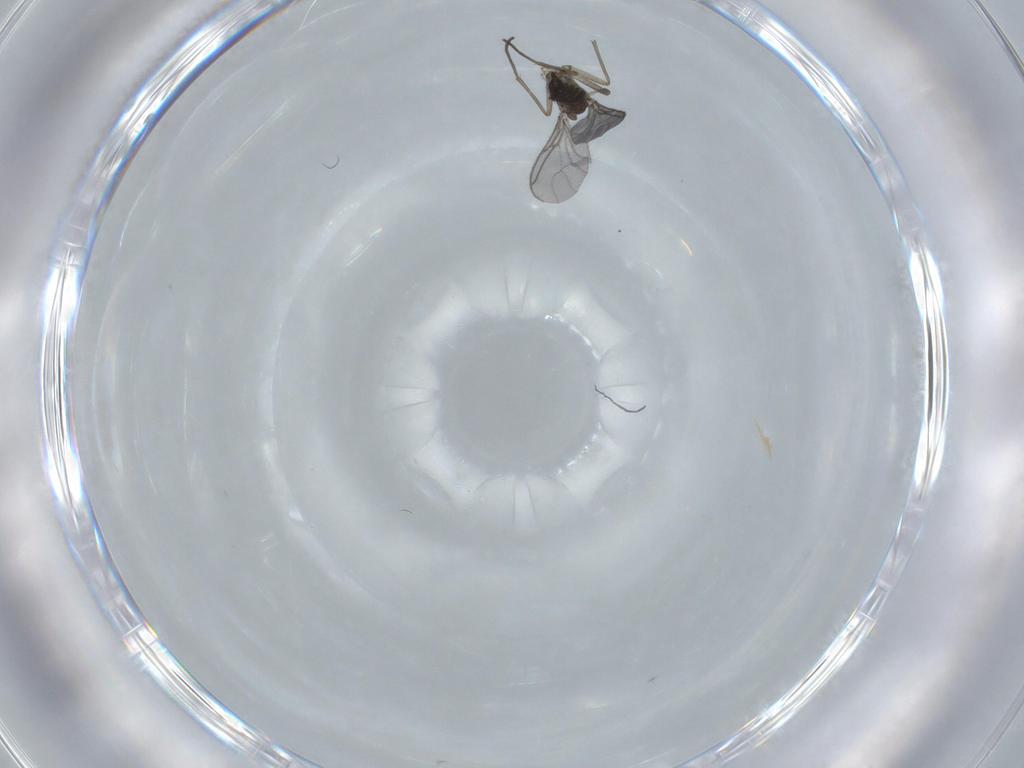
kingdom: Animalia
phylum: Arthropoda
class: Insecta
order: Diptera
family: Sciaridae
